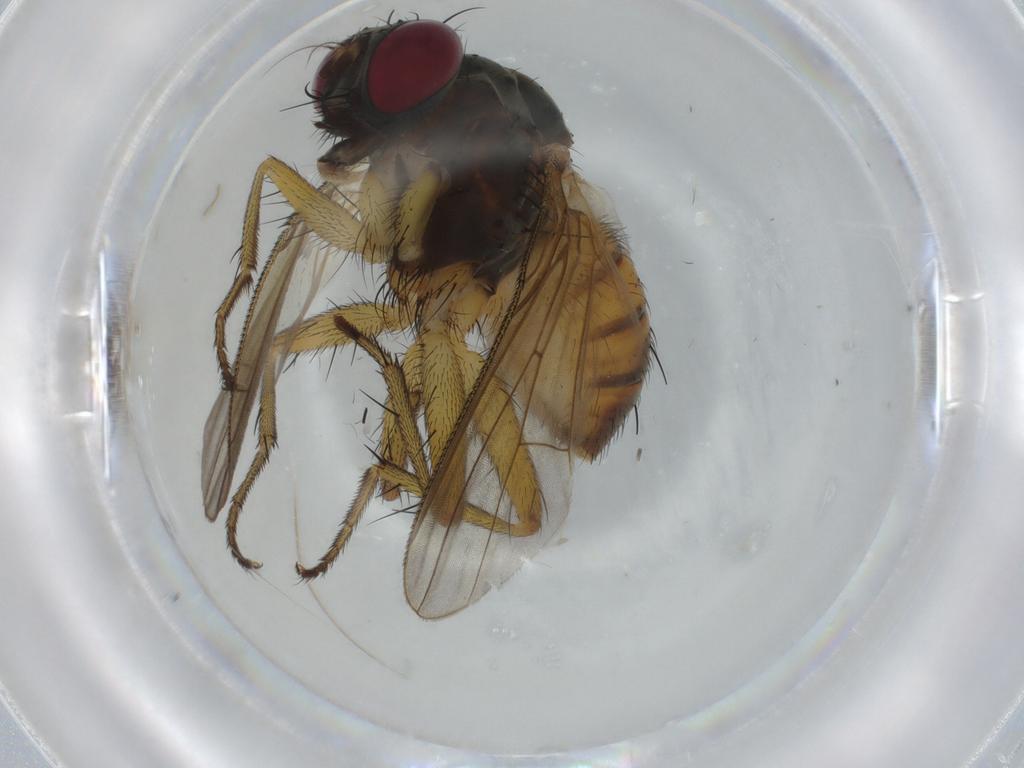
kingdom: Animalia
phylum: Arthropoda
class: Insecta
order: Diptera
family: Muscidae
